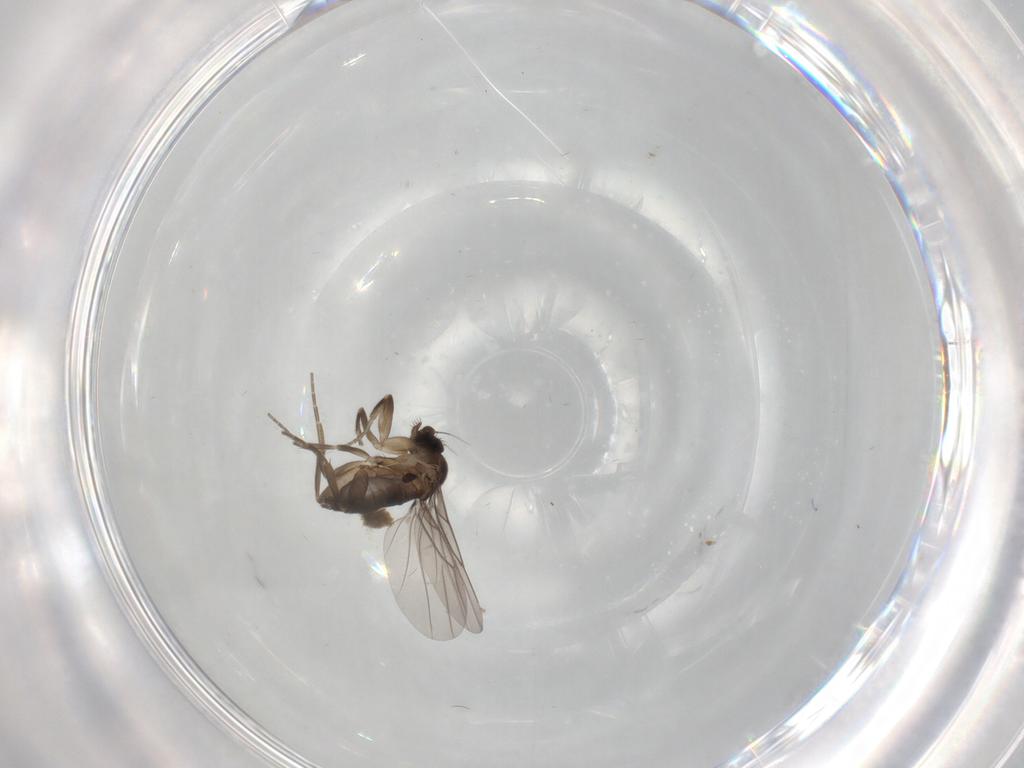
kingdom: Animalia
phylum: Arthropoda
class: Insecta
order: Diptera
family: Phoridae
